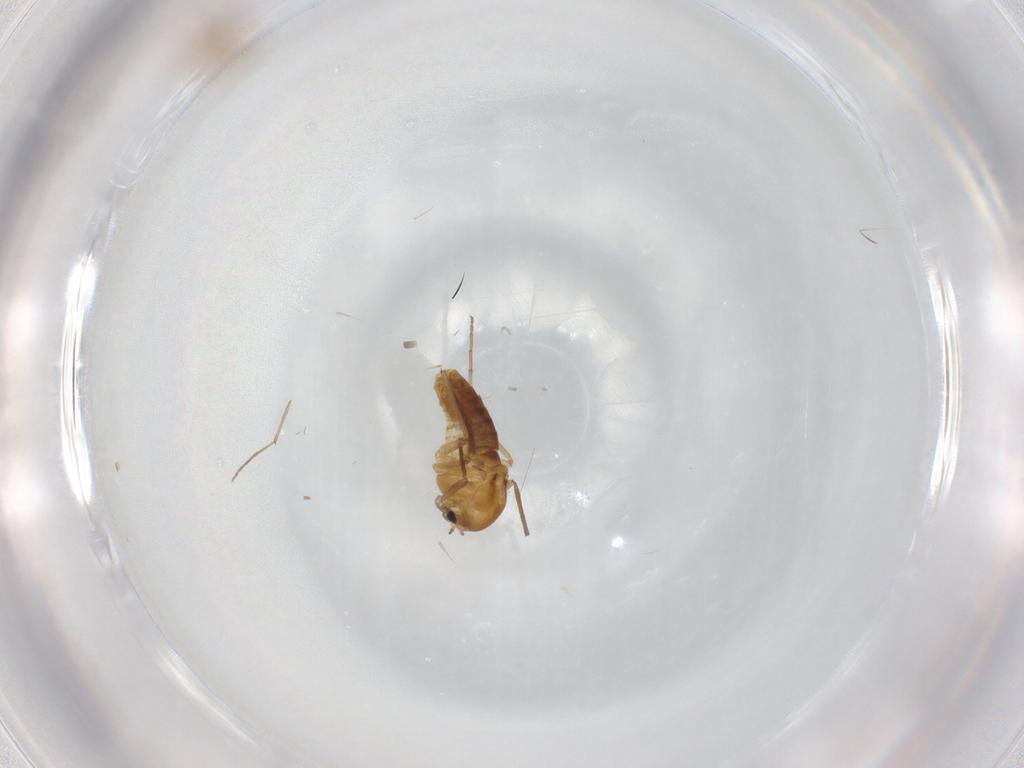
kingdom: Animalia
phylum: Arthropoda
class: Insecta
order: Diptera
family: Chironomidae
